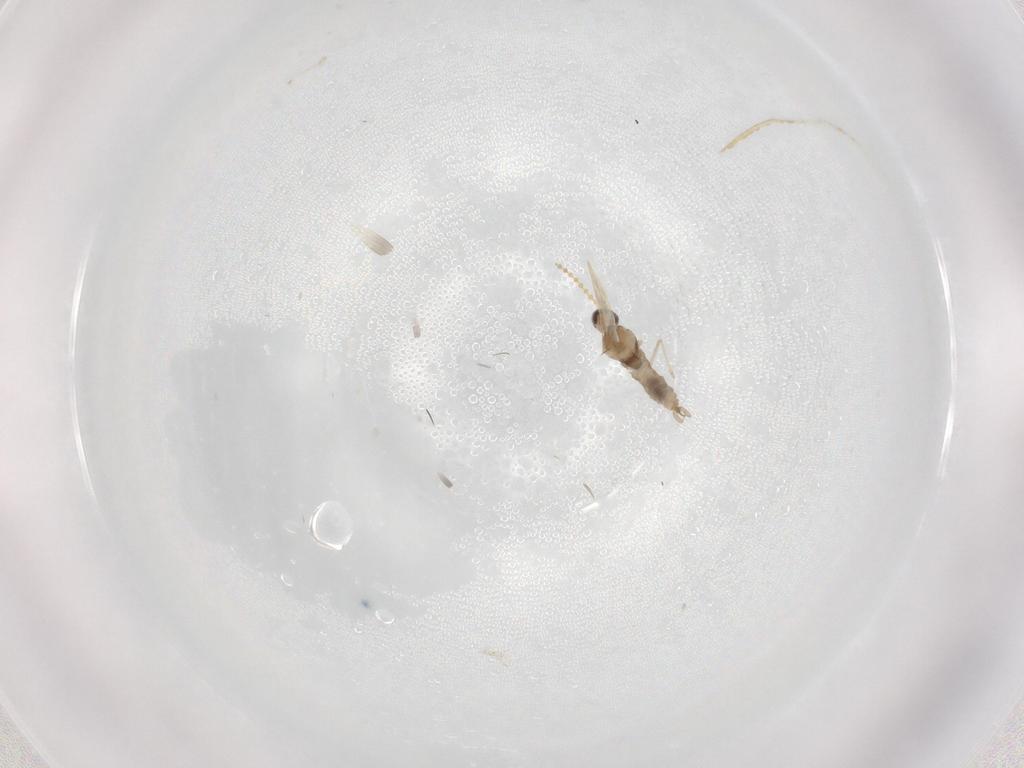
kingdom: Animalia
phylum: Arthropoda
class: Insecta
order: Diptera
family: Cecidomyiidae
